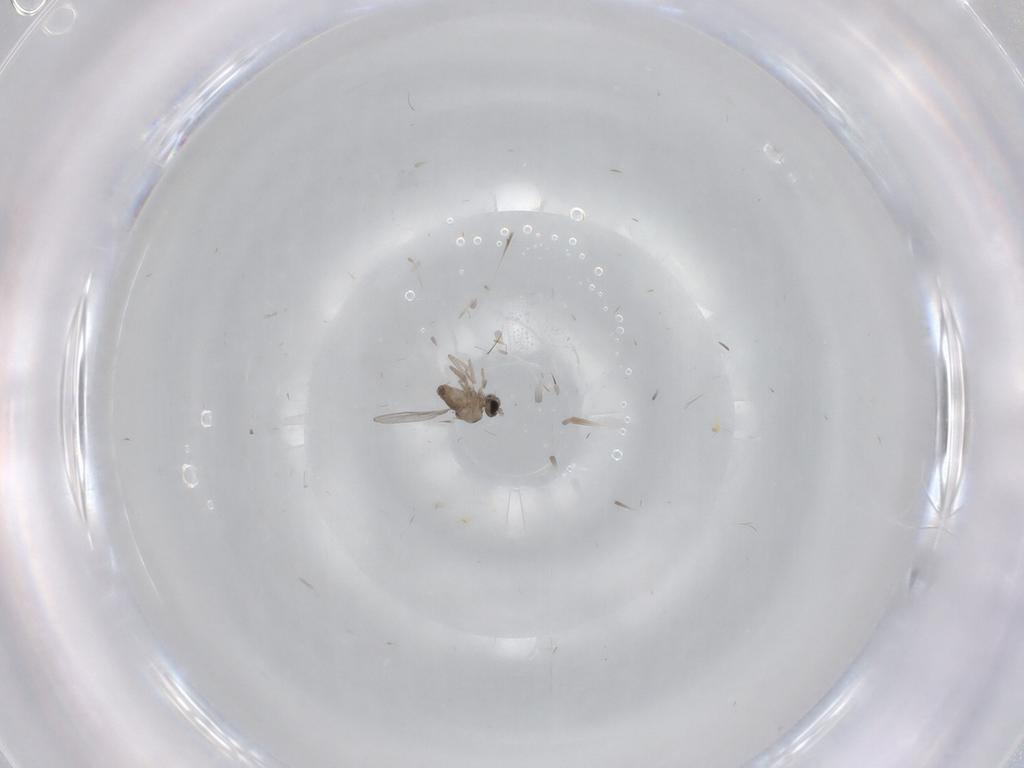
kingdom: Animalia
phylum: Arthropoda
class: Insecta
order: Diptera
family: Cecidomyiidae
